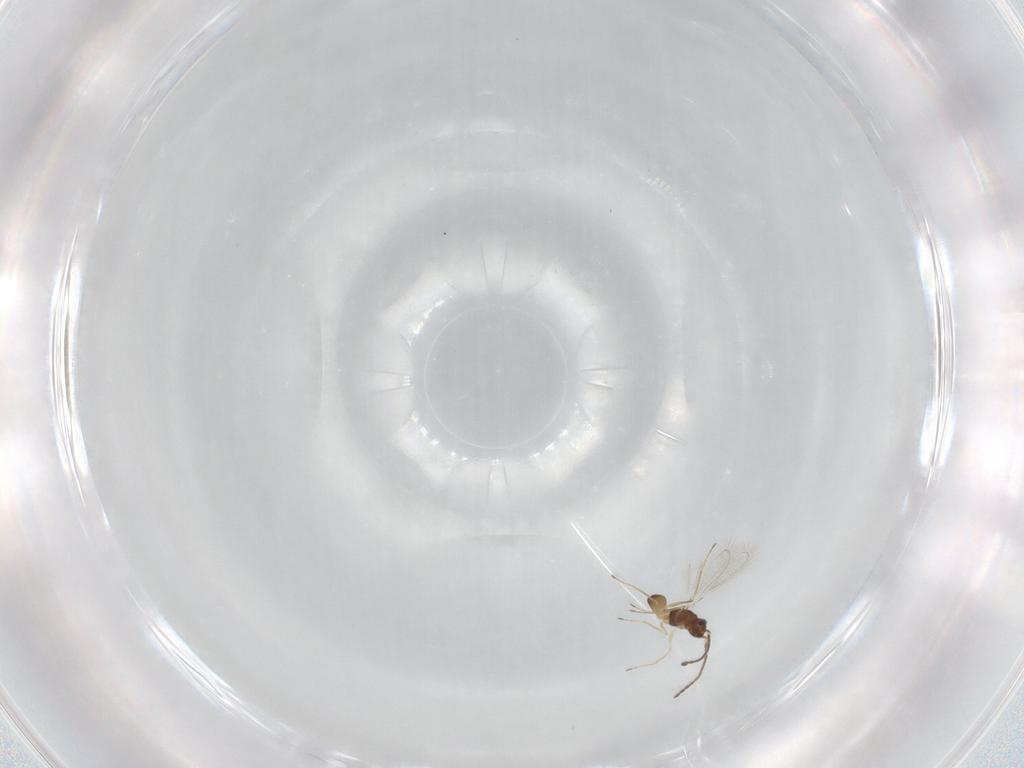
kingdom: Animalia
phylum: Arthropoda
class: Insecta
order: Hymenoptera
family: Mymaridae
